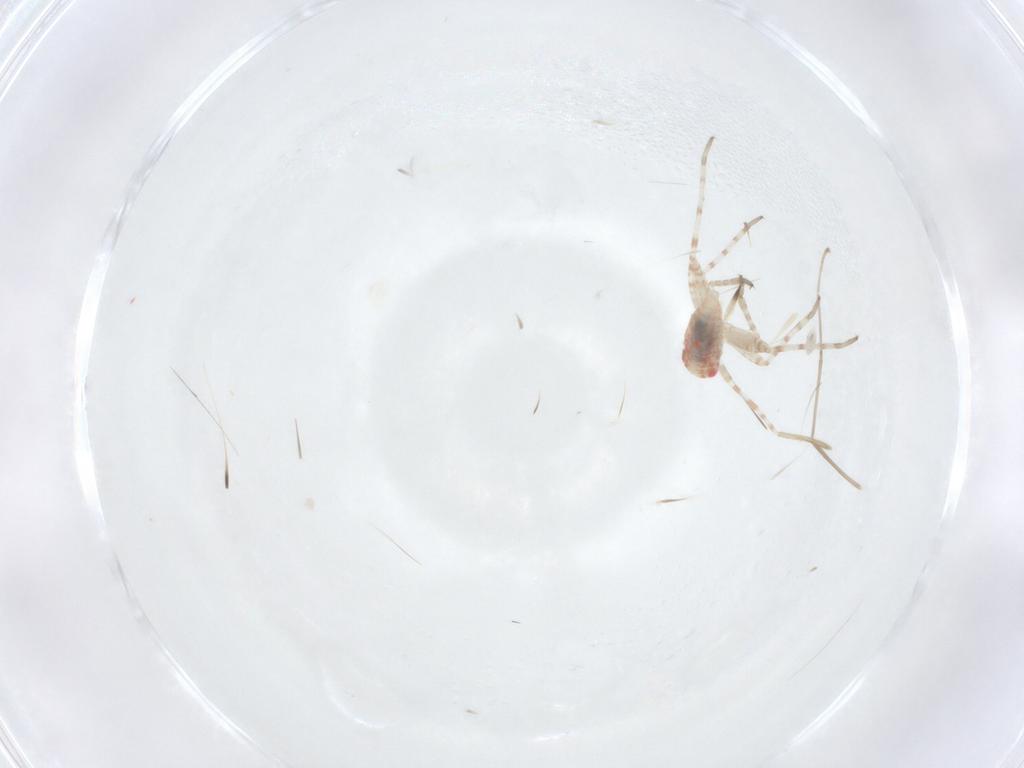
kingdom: Animalia
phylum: Arthropoda
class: Insecta
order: Hemiptera
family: Miridae
